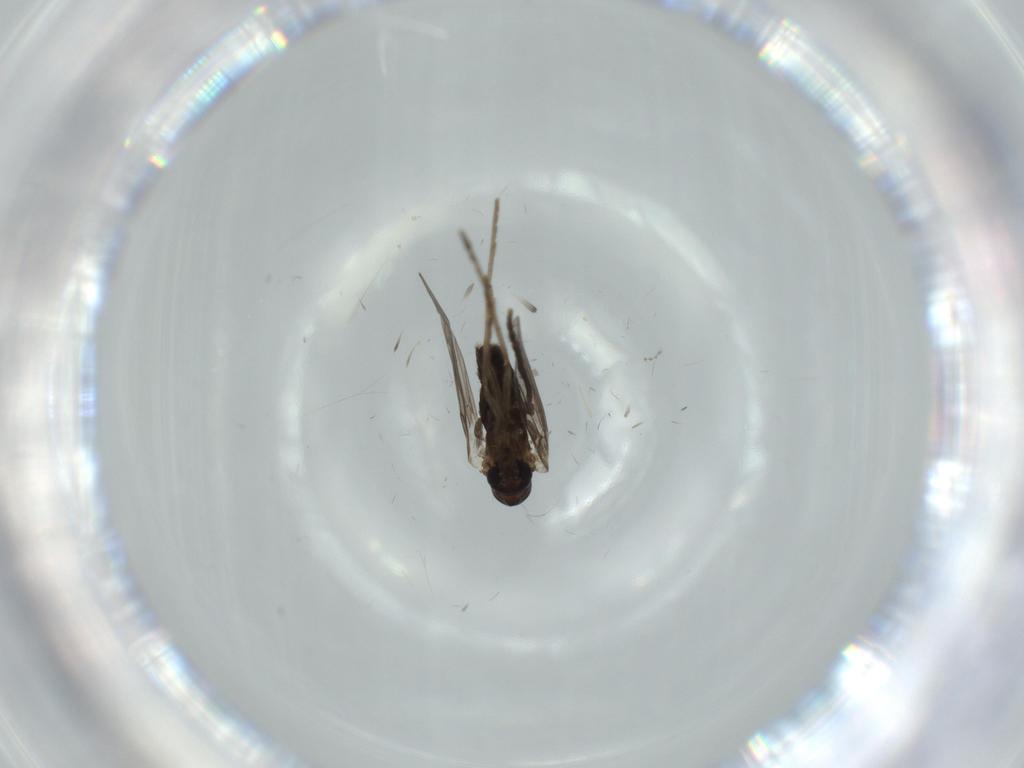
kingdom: Animalia
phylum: Arthropoda
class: Insecta
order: Diptera
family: Psychodidae
